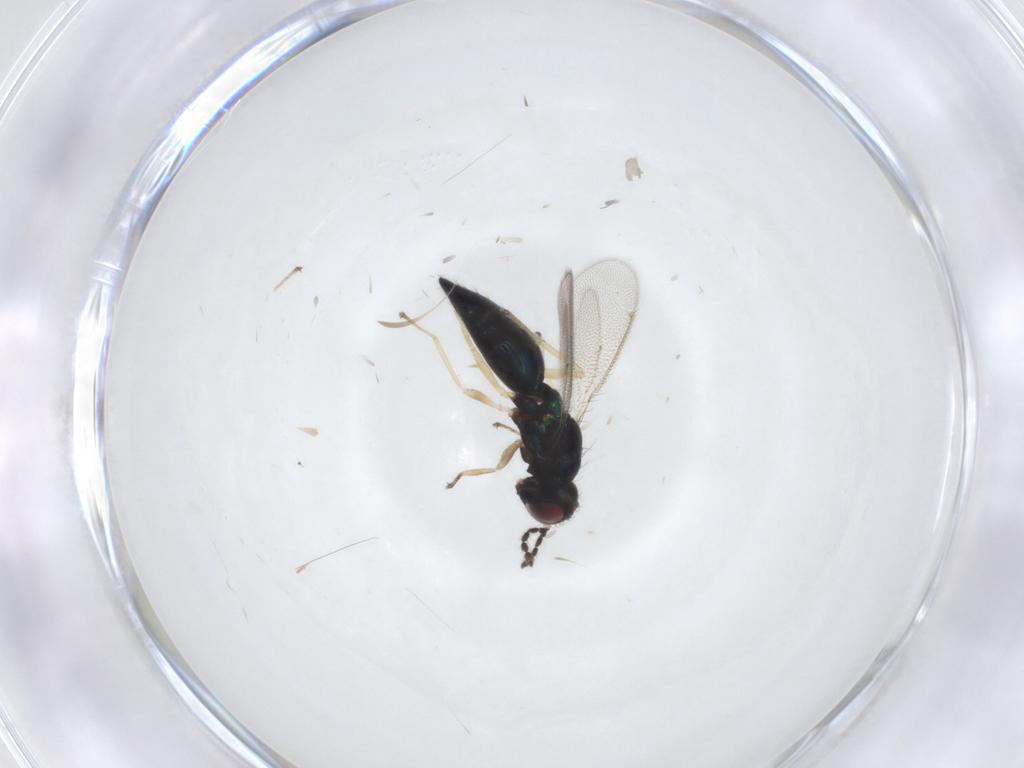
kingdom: Animalia
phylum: Arthropoda
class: Insecta
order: Hymenoptera
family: Eulophidae
